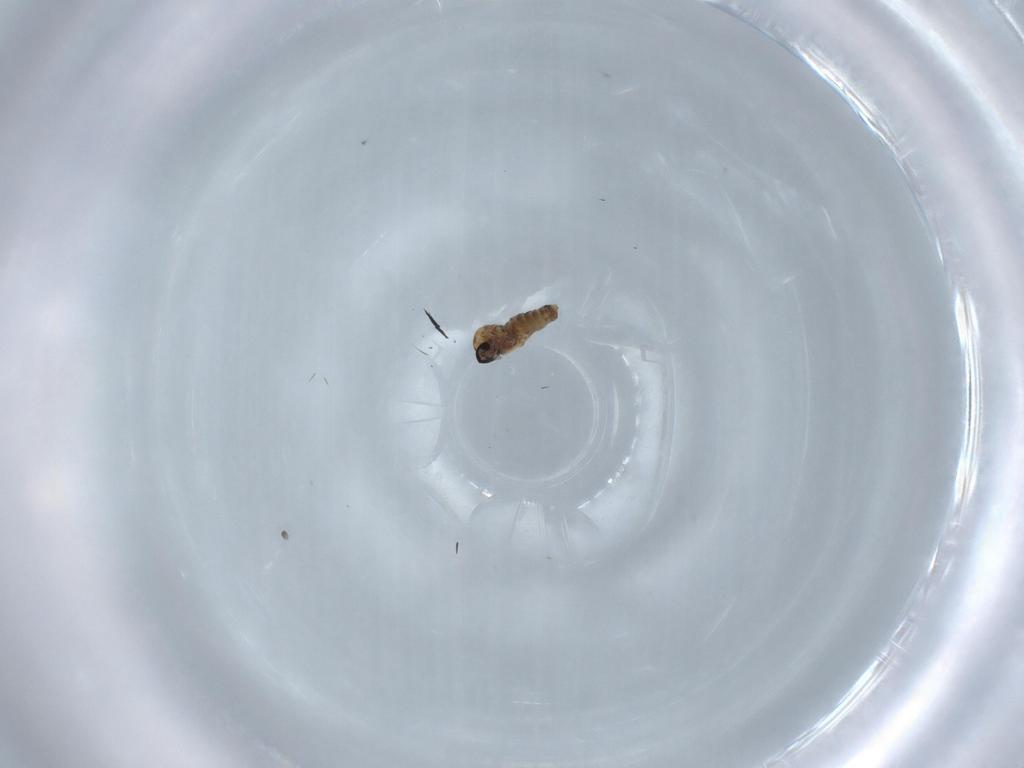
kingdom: Animalia
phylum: Arthropoda
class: Insecta
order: Diptera
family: Ephydridae
